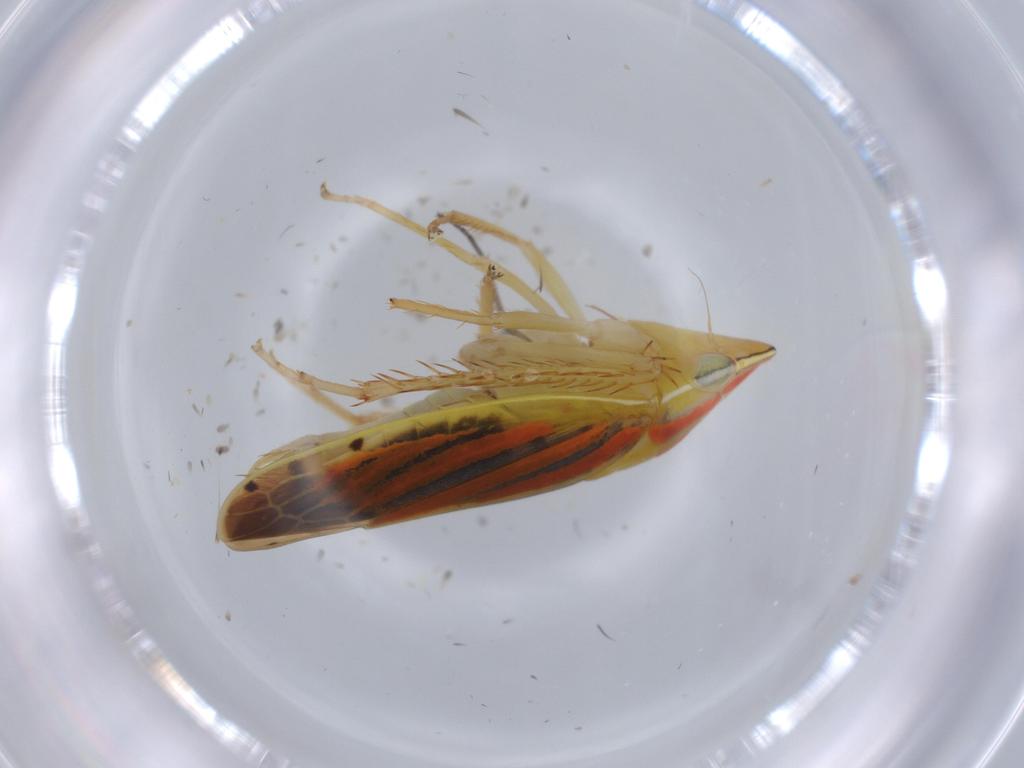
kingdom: Animalia
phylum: Arthropoda
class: Insecta
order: Hemiptera
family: Cicadellidae
